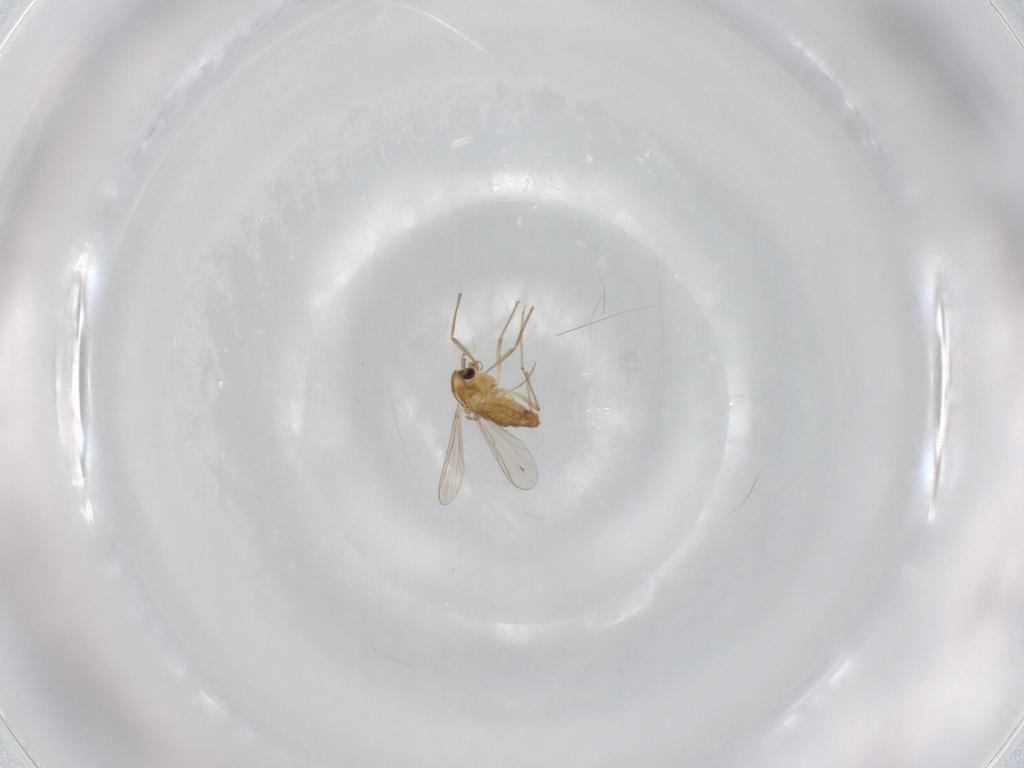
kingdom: Animalia
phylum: Arthropoda
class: Insecta
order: Diptera
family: Chironomidae
